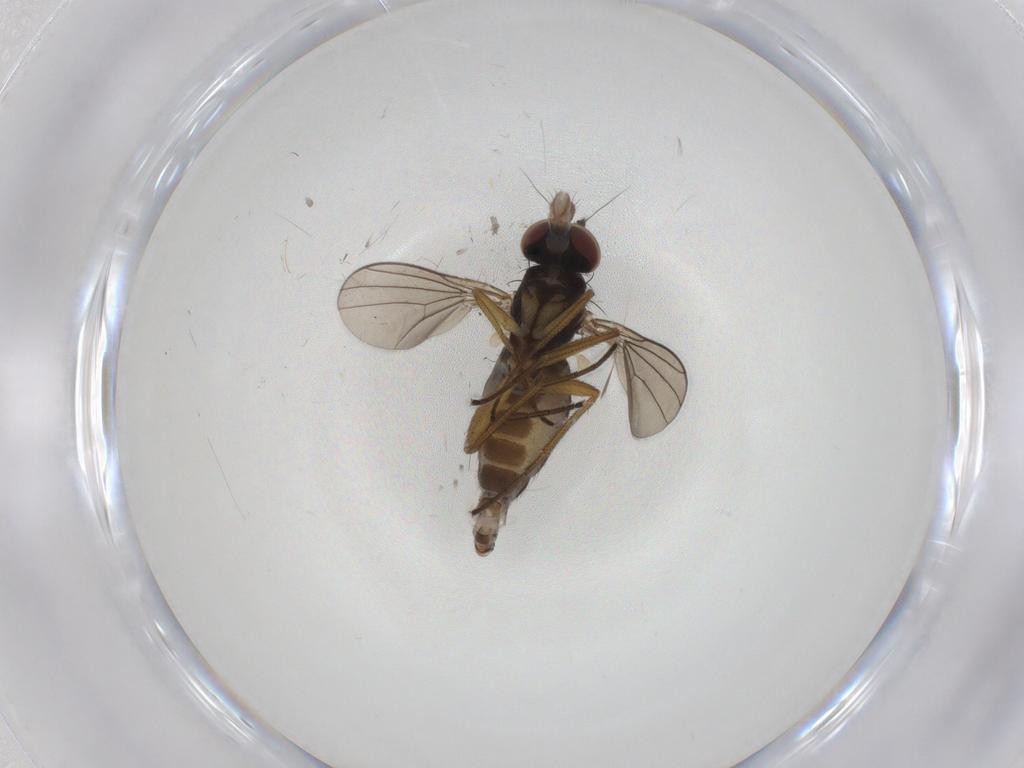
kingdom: Animalia
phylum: Arthropoda
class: Insecta
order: Diptera
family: Dolichopodidae
